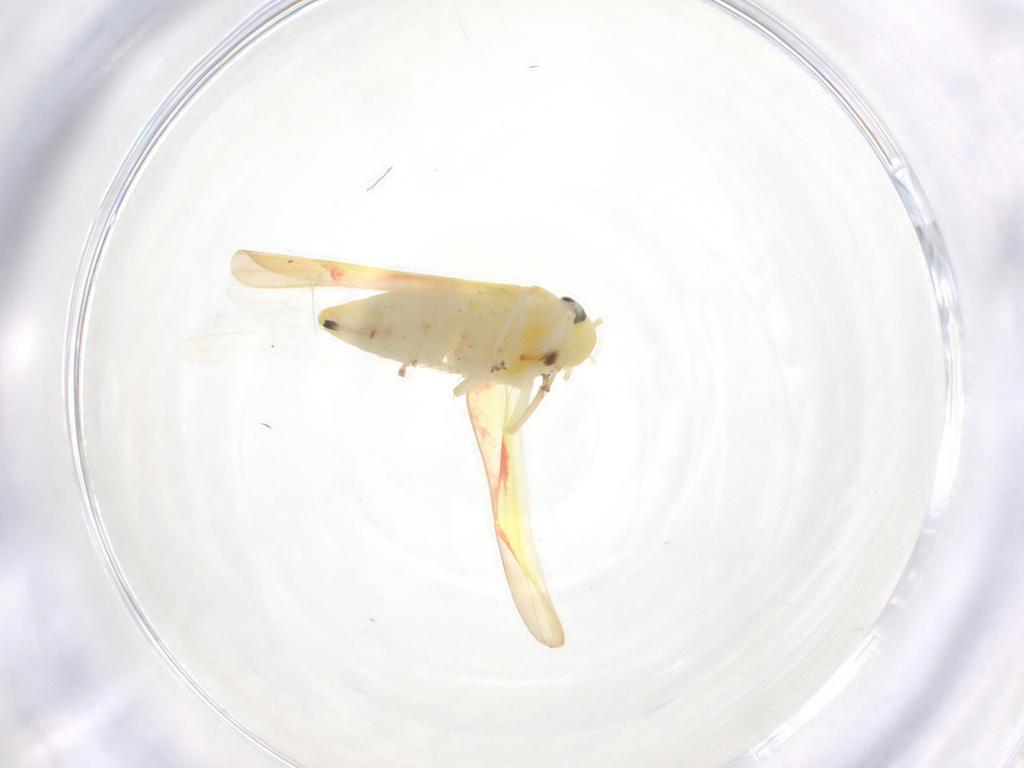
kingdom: Animalia
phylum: Arthropoda
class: Insecta
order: Hemiptera
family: Cicadellidae
